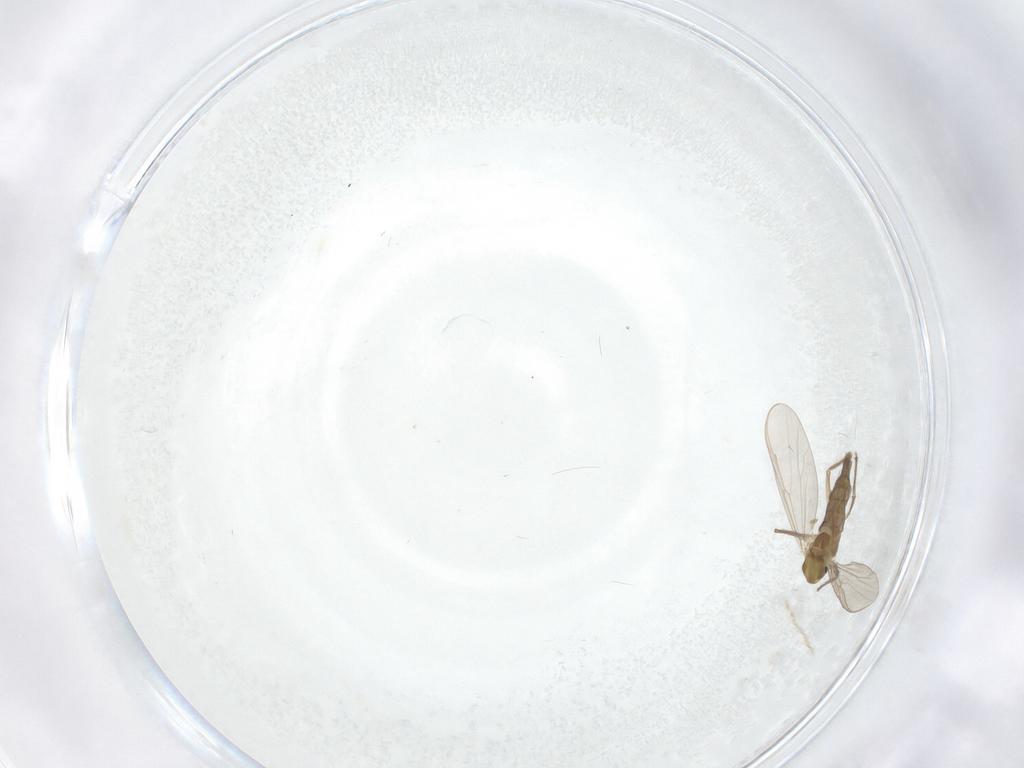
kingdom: Animalia
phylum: Arthropoda
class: Insecta
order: Diptera
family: Chironomidae
